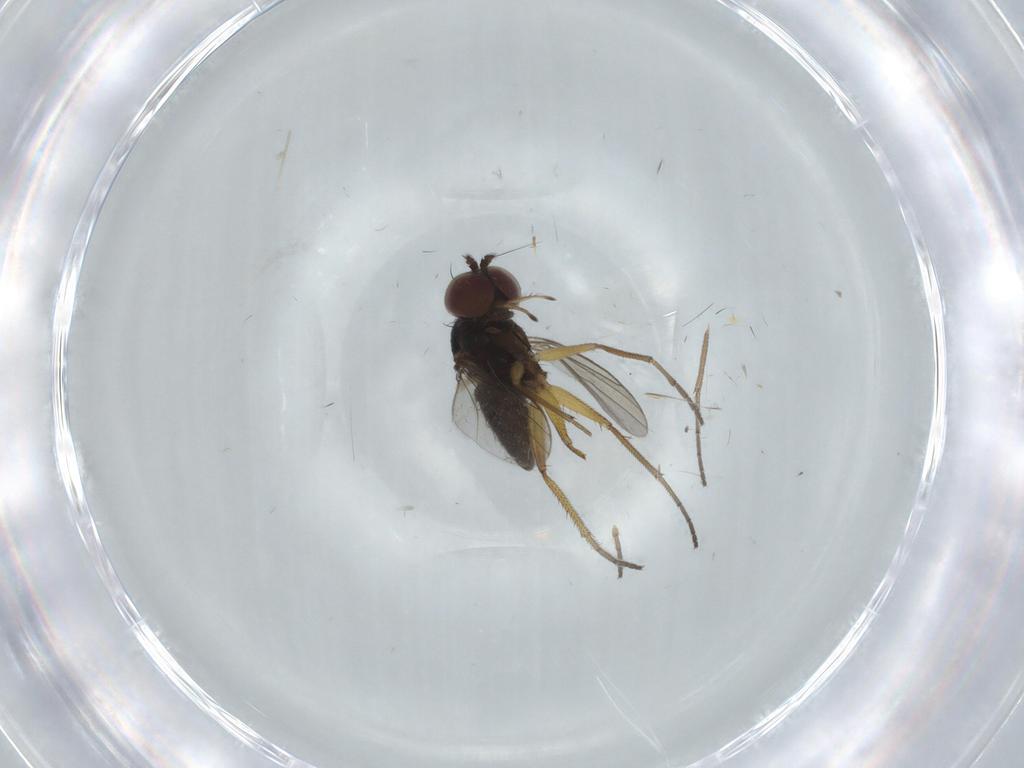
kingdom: Animalia
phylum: Arthropoda
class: Insecta
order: Diptera
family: Dolichopodidae
